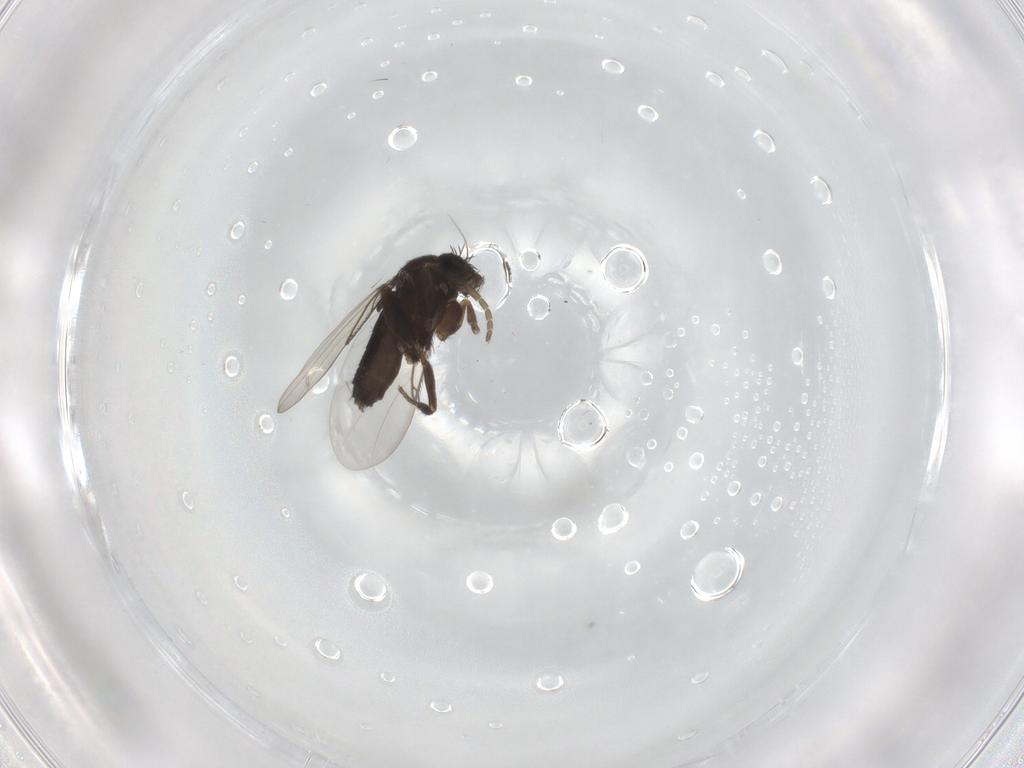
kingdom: Animalia
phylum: Arthropoda
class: Insecta
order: Diptera
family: Phoridae
